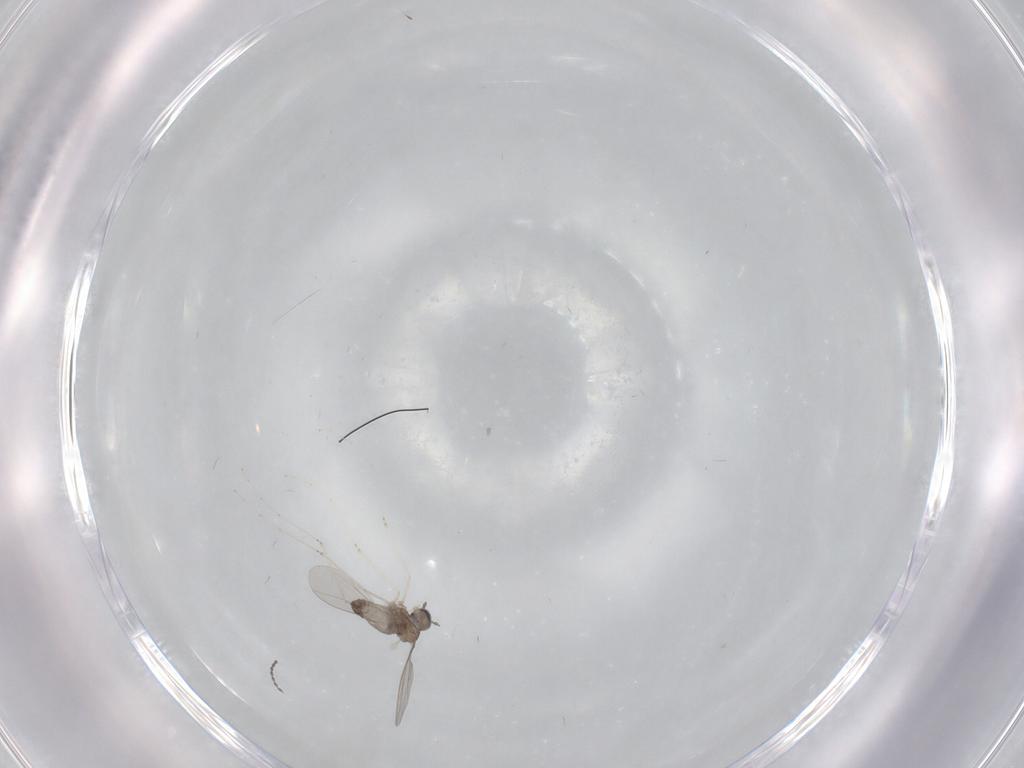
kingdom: Animalia
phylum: Arthropoda
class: Insecta
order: Diptera
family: Cecidomyiidae
